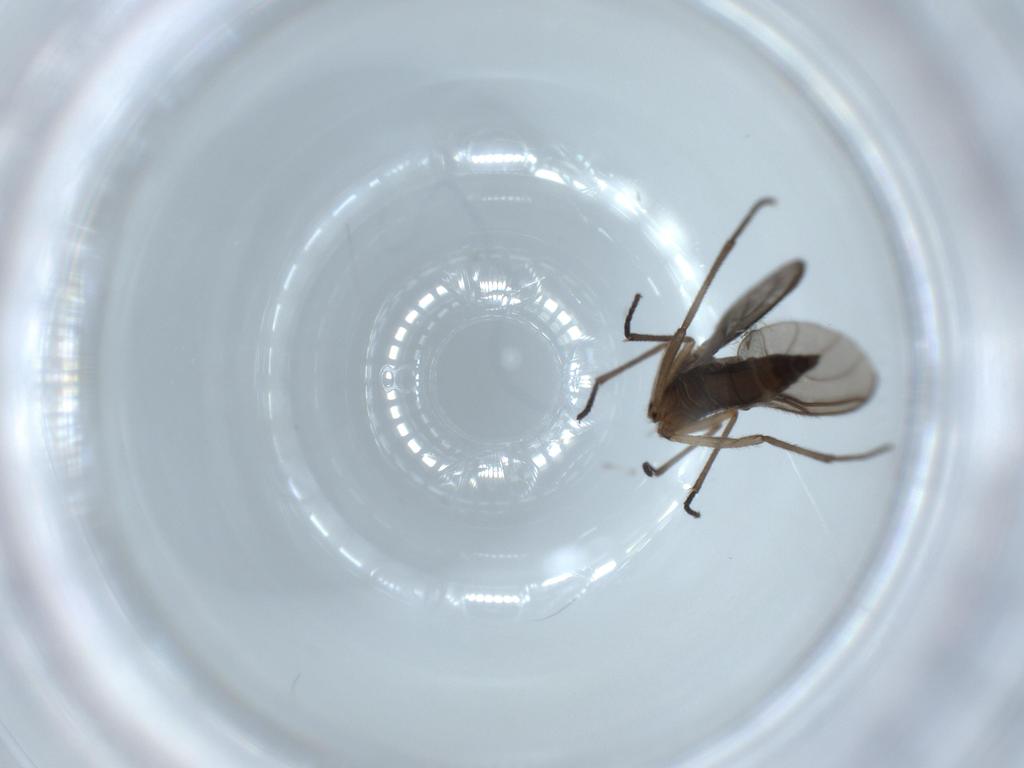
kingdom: Animalia
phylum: Arthropoda
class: Insecta
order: Diptera
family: Sciaridae
